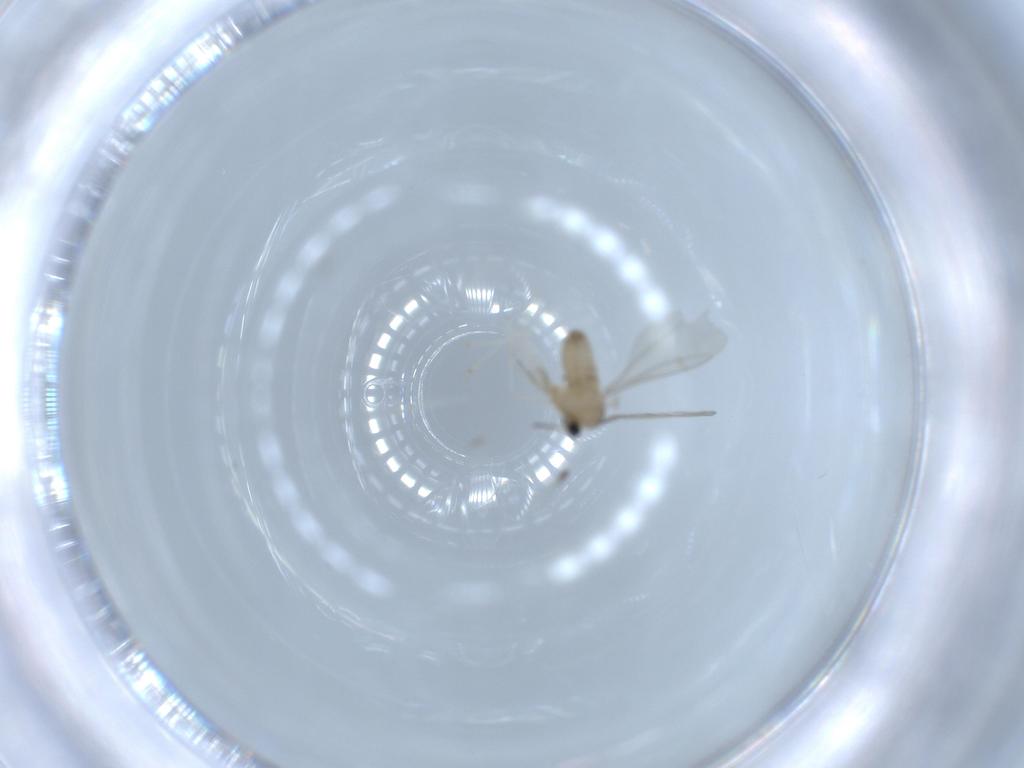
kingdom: Animalia
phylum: Arthropoda
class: Insecta
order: Diptera
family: Cecidomyiidae
